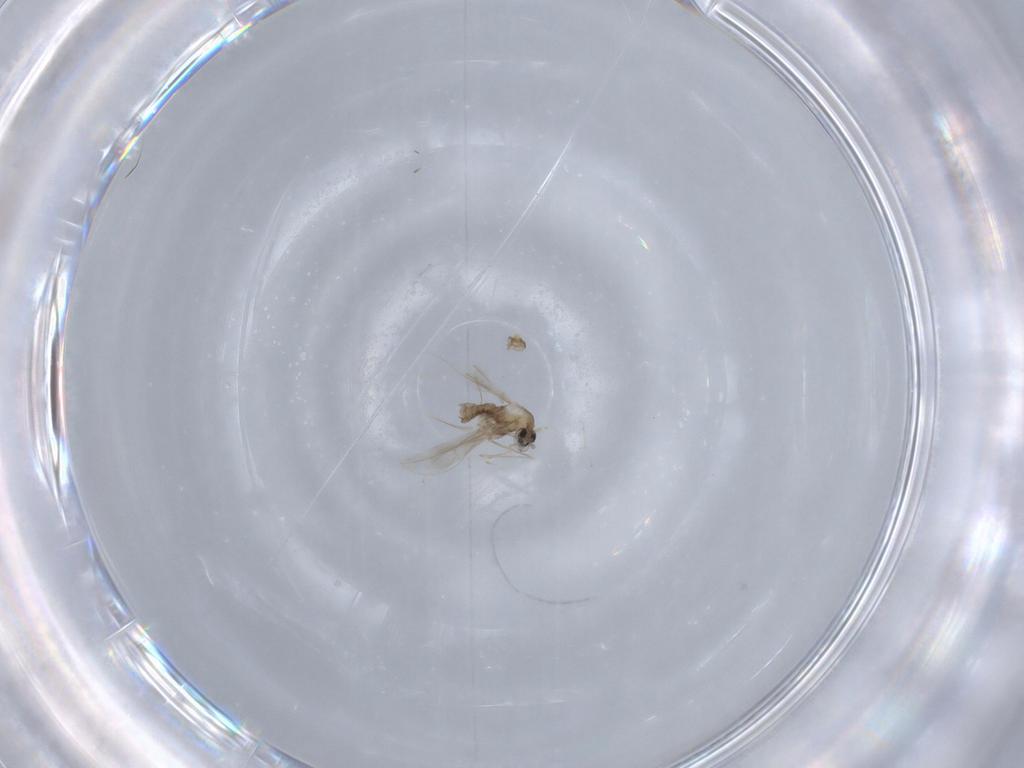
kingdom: Animalia
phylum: Arthropoda
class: Insecta
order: Diptera
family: Cecidomyiidae
